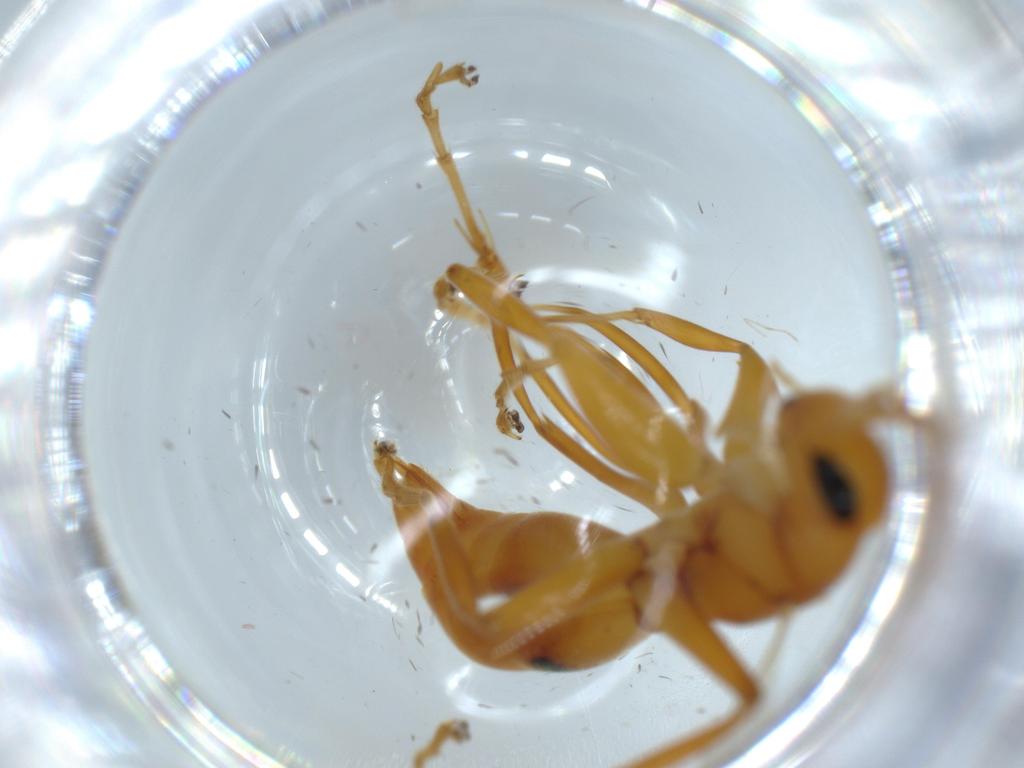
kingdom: Animalia
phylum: Arthropoda
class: Insecta
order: Hymenoptera
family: Rhopalosomatidae
